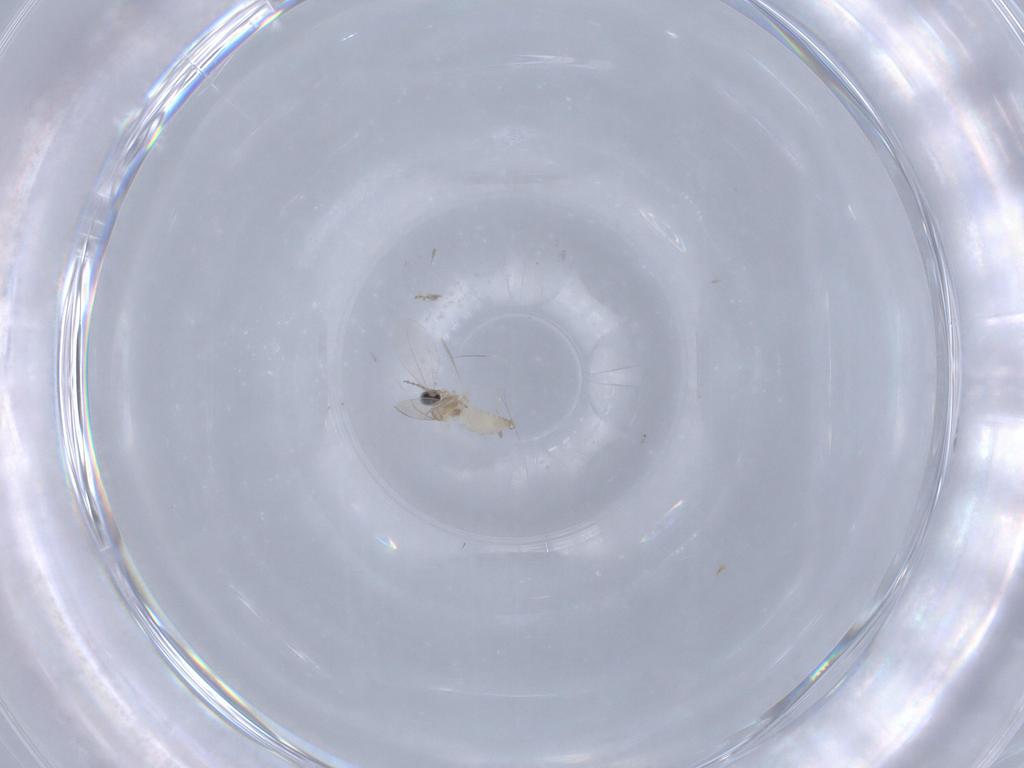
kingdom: Animalia
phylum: Arthropoda
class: Insecta
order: Diptera
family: Cecidomyiidae
